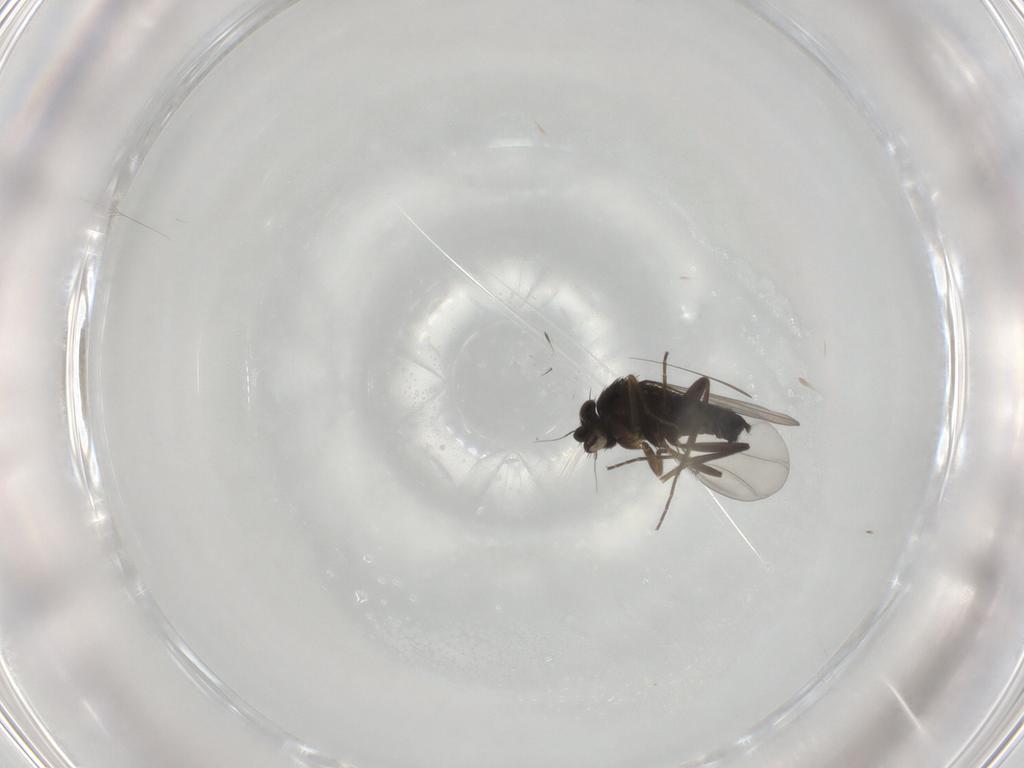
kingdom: Animalia
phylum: Arthropoda
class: Insecta
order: Diptera
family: Phoridae
